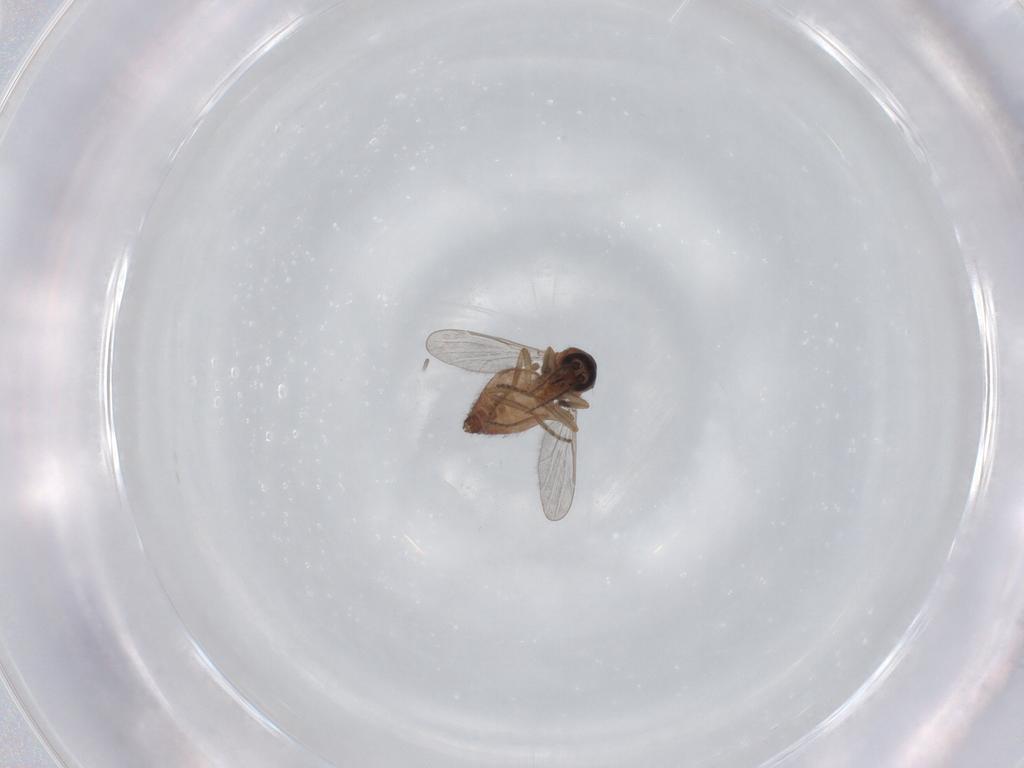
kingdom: Animalia
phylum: Arthropoda
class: Insecta
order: Diptera
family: Ceratopogonidae
